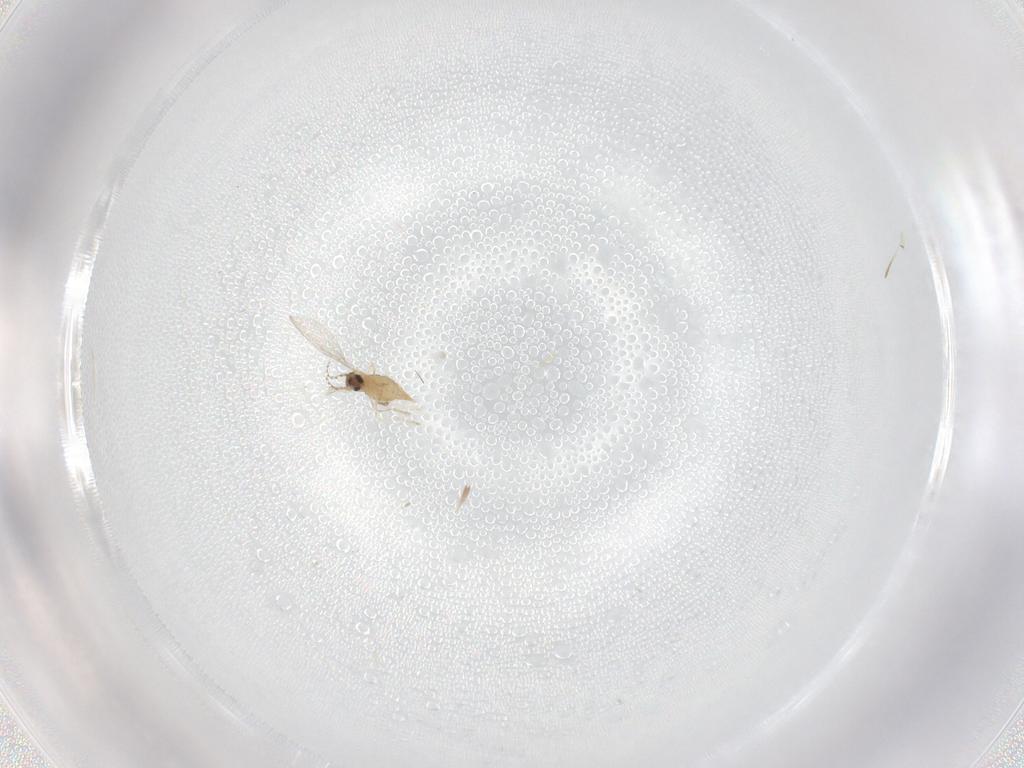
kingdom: Animalia
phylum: Arthropoda
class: Insecta
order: Diptera
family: Cecidomyiidae
